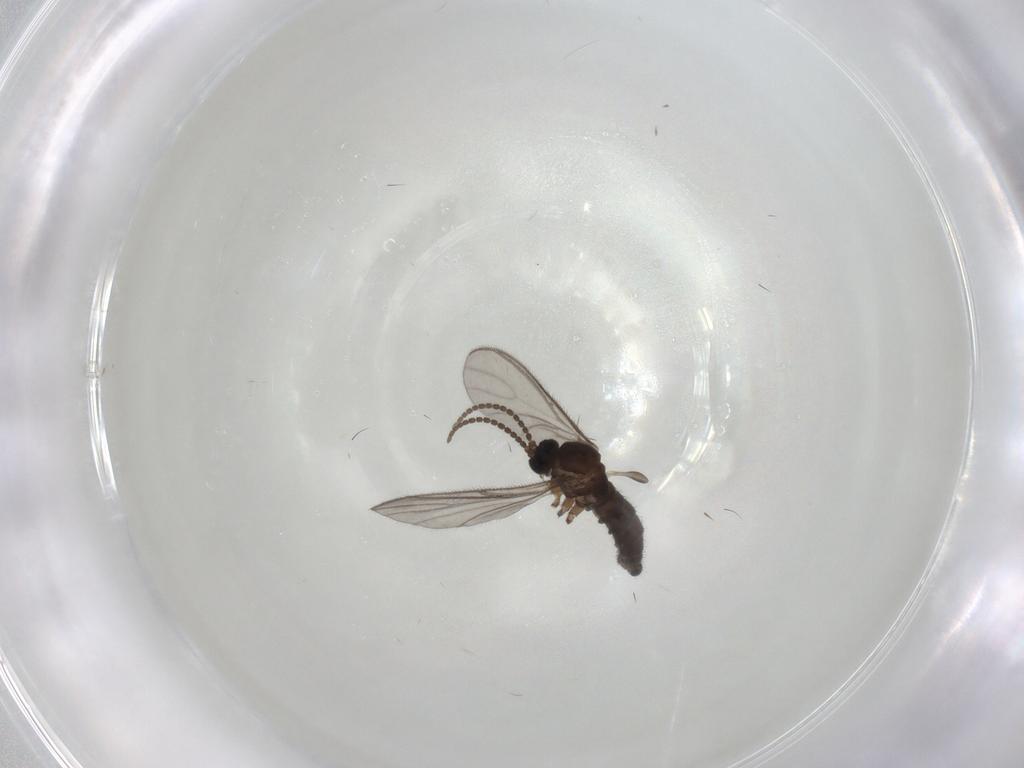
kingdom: Animalia
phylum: Arthropoda
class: Insecta
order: Diptera
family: Sciaridae
